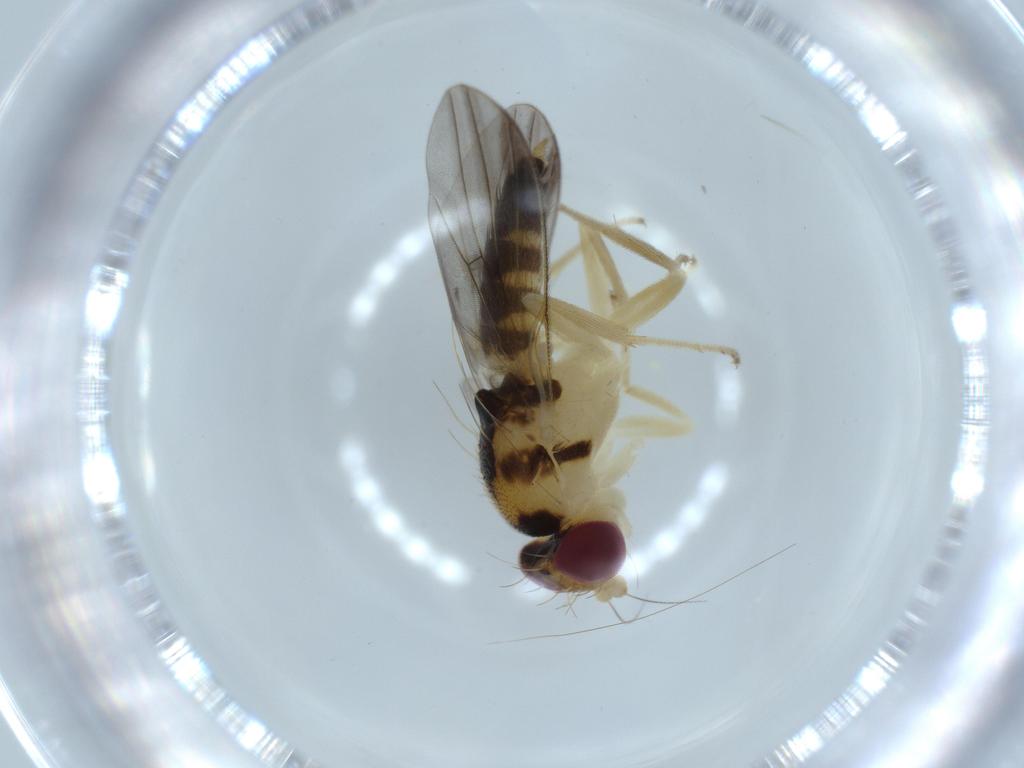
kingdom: Animalia
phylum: Arthropoda
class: Insecta
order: Diptera
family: Clusiidae
